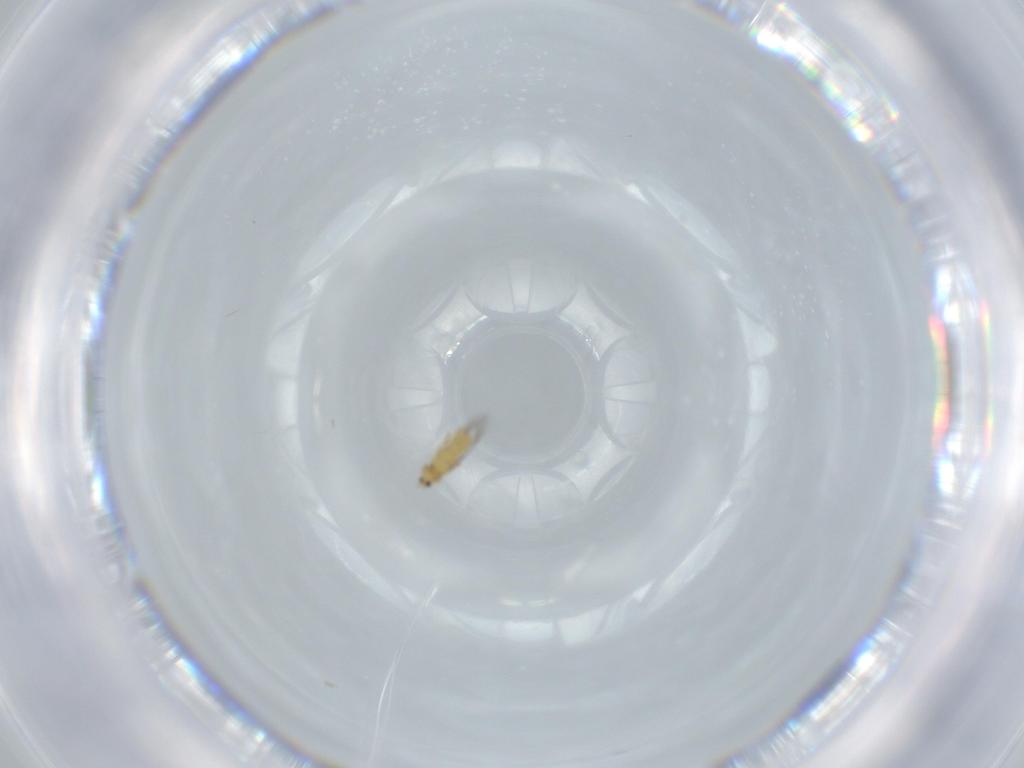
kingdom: Animalia
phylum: Arthropoda
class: Insecta
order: Thysanoptera
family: Thripidae
